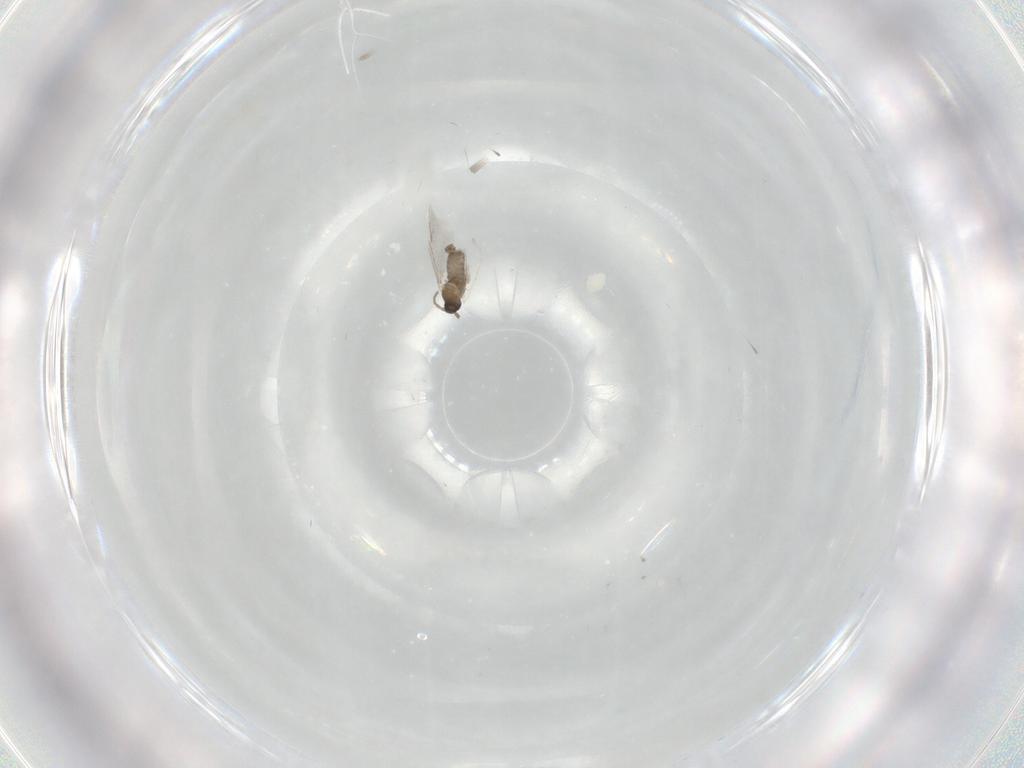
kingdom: Animalia
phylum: Arthropoda
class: Insecta
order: Diptera
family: Cecidomyiidae
